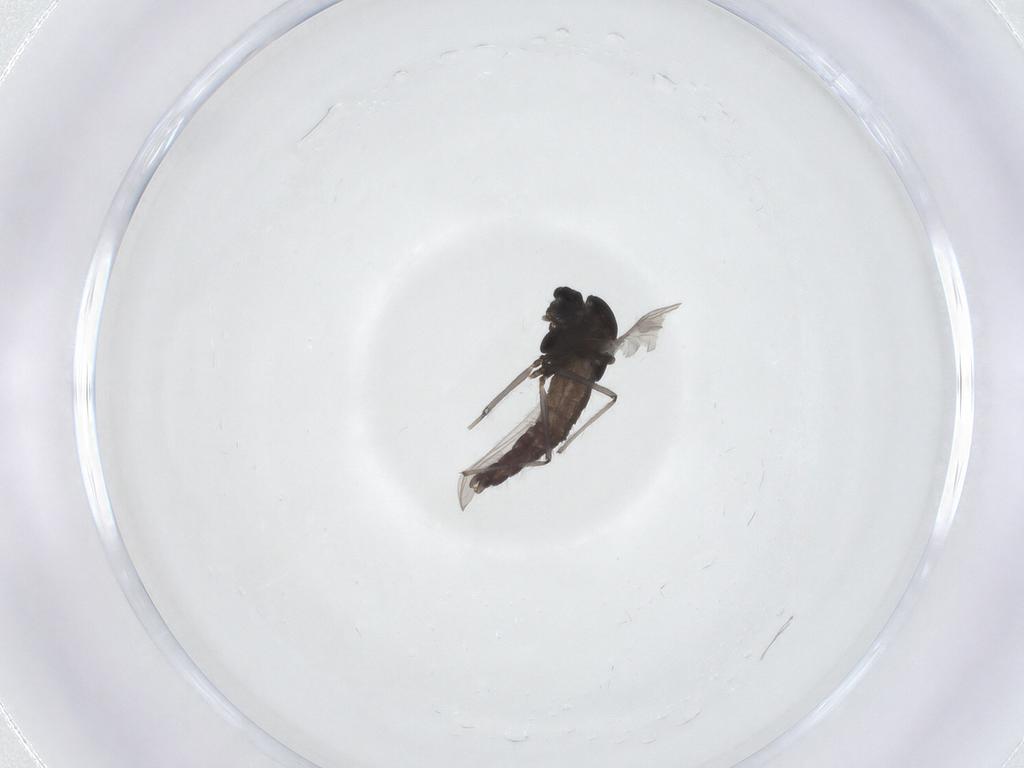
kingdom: Animalia
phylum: Arthropoda
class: Insecta
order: Diptera
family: Chironomidae
